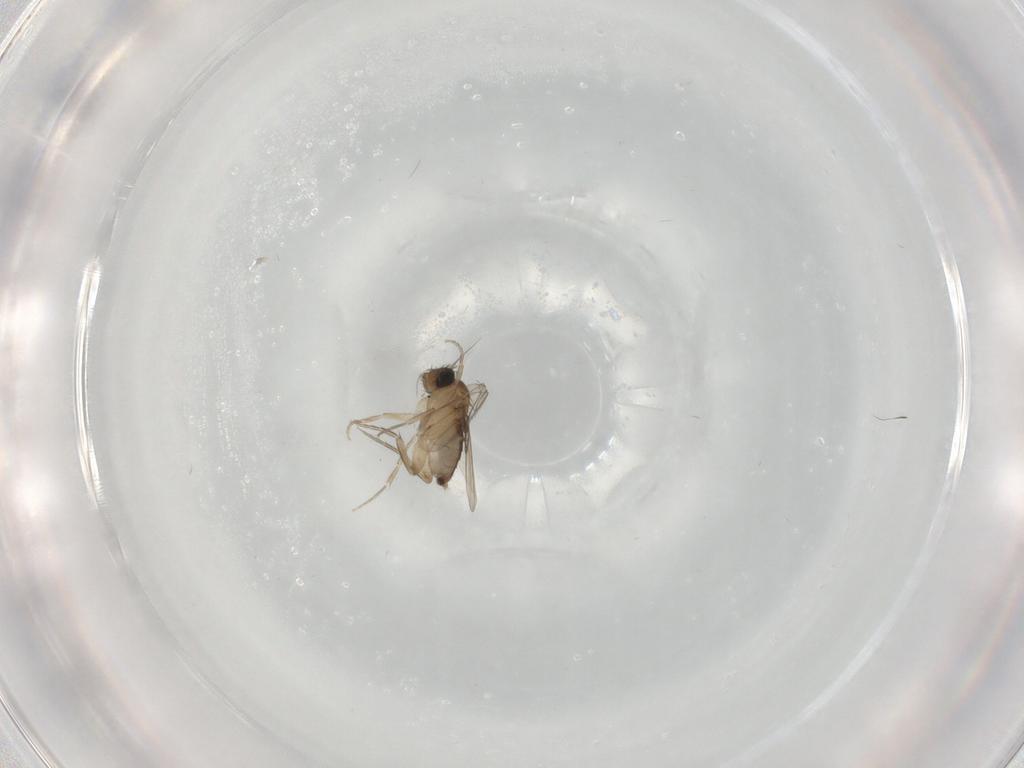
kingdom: Animalia
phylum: Arthropoda
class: Insecta
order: Diptera
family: Phoridae
